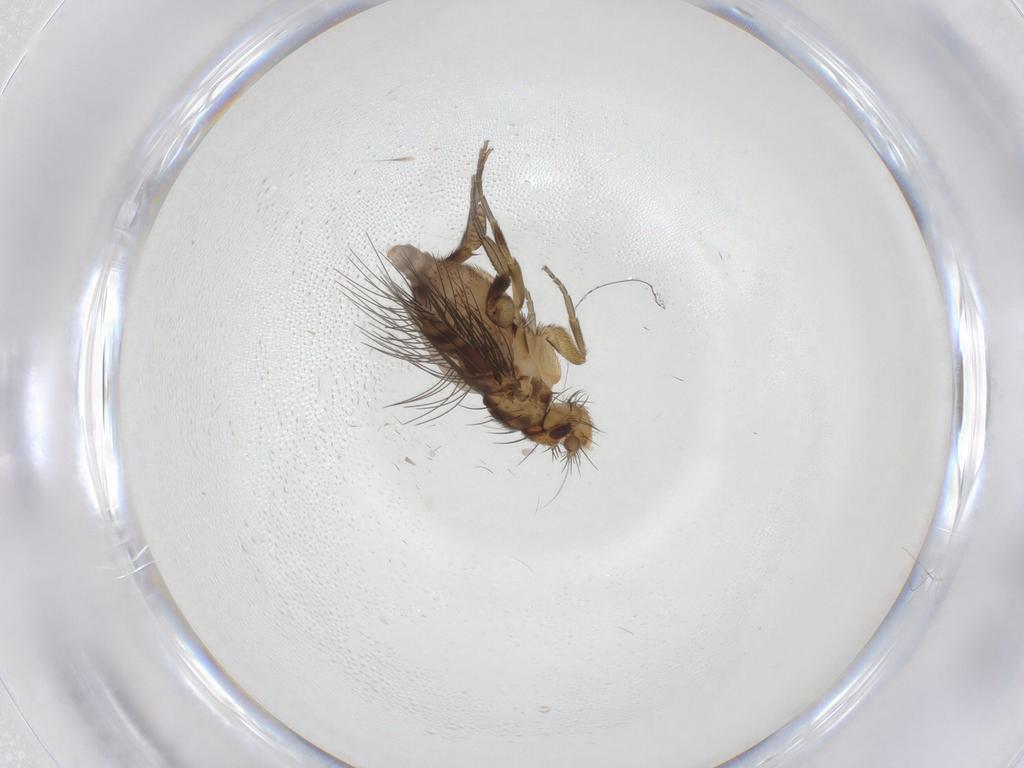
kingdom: Animalia
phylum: Arthropoda
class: Insecta
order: Diptera
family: Phoridae
